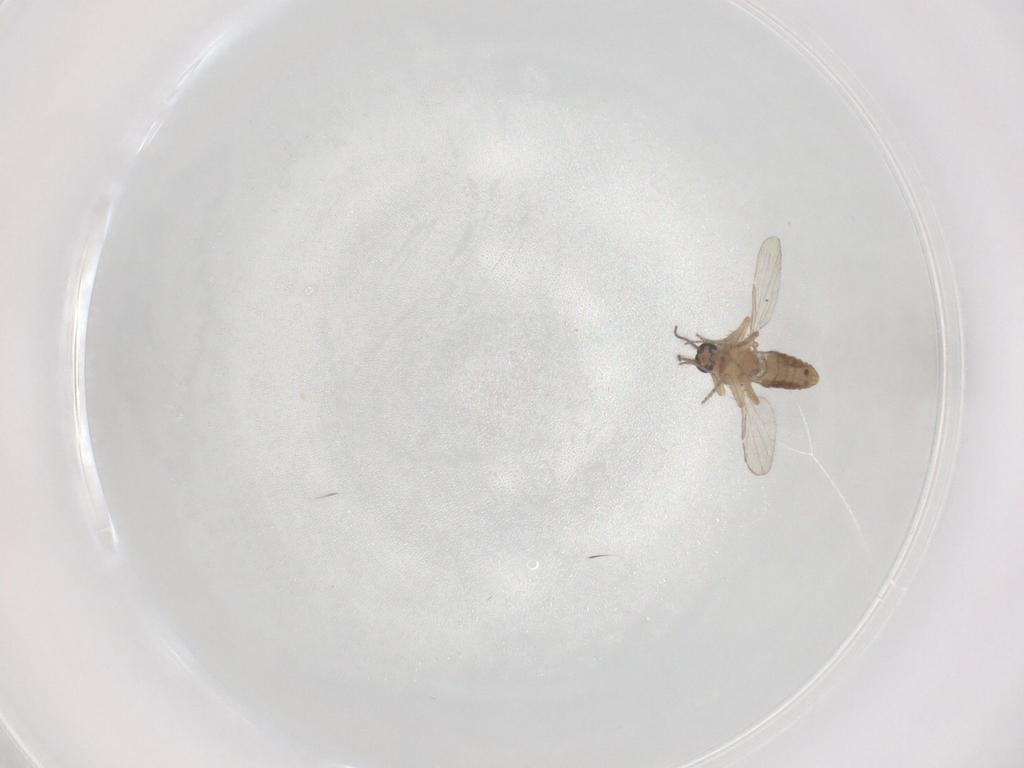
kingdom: Animalia
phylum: Arthropoda
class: Insecta
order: Diptera
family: Ceratopogonidae
